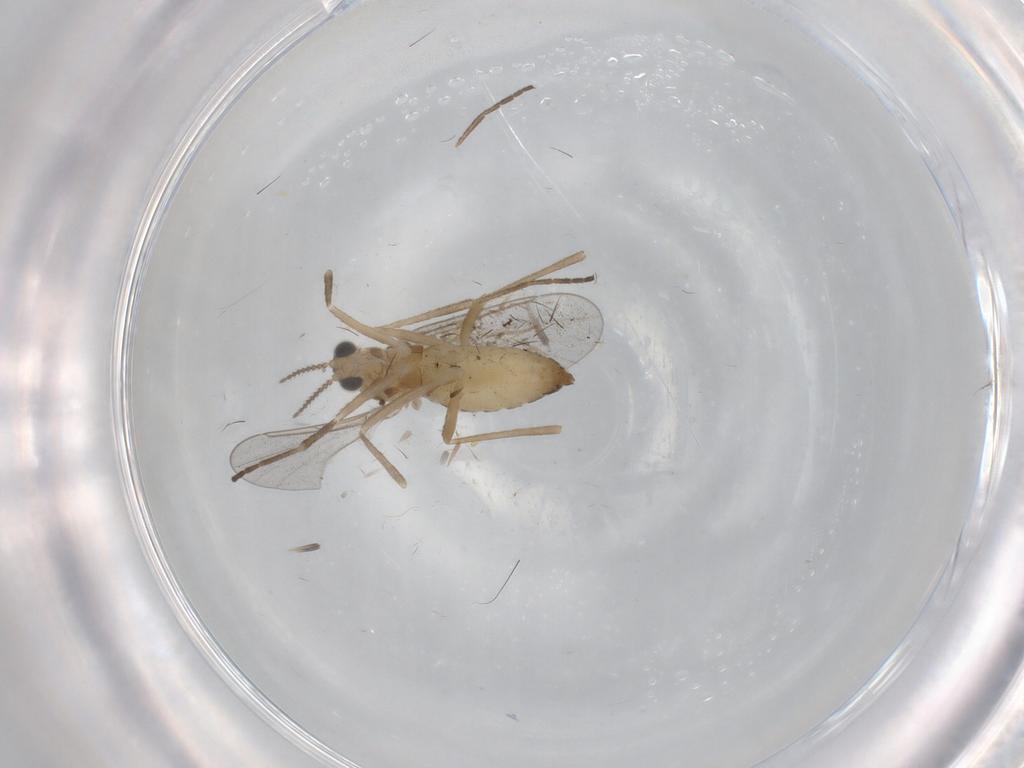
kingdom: Animalia
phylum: Arthropoda
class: Insecta
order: Diptera
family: Cecidomyiidae
